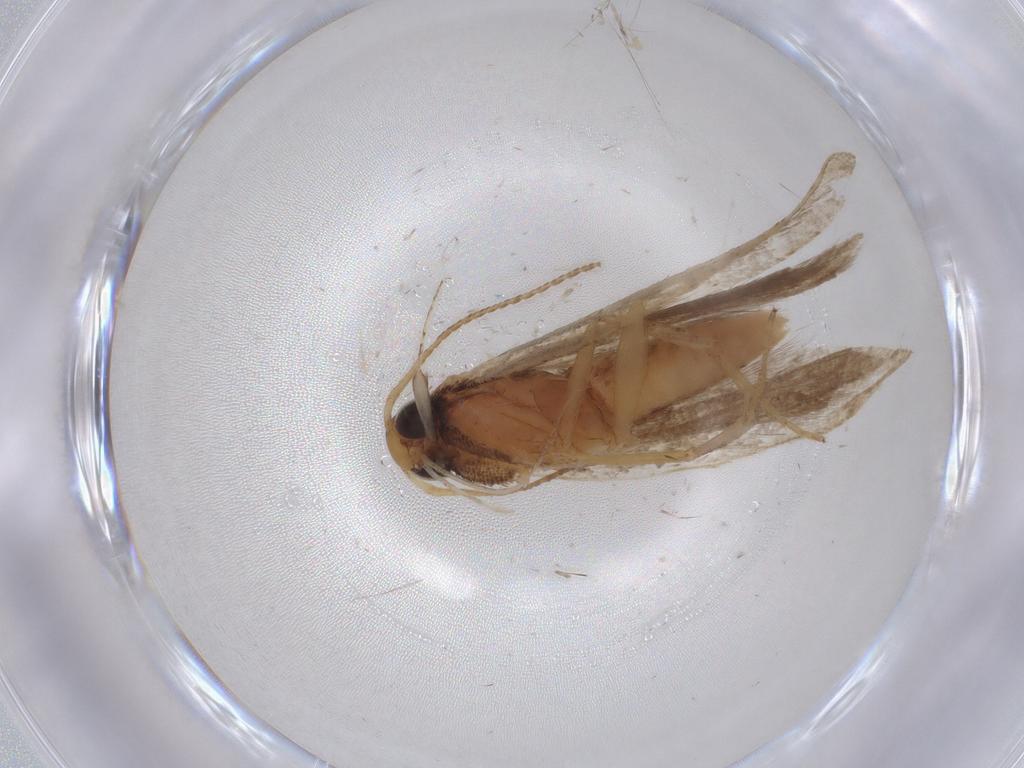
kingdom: Animalia
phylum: Arthropoda
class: Insecta
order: Lepidoptera
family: Gelechiidae
